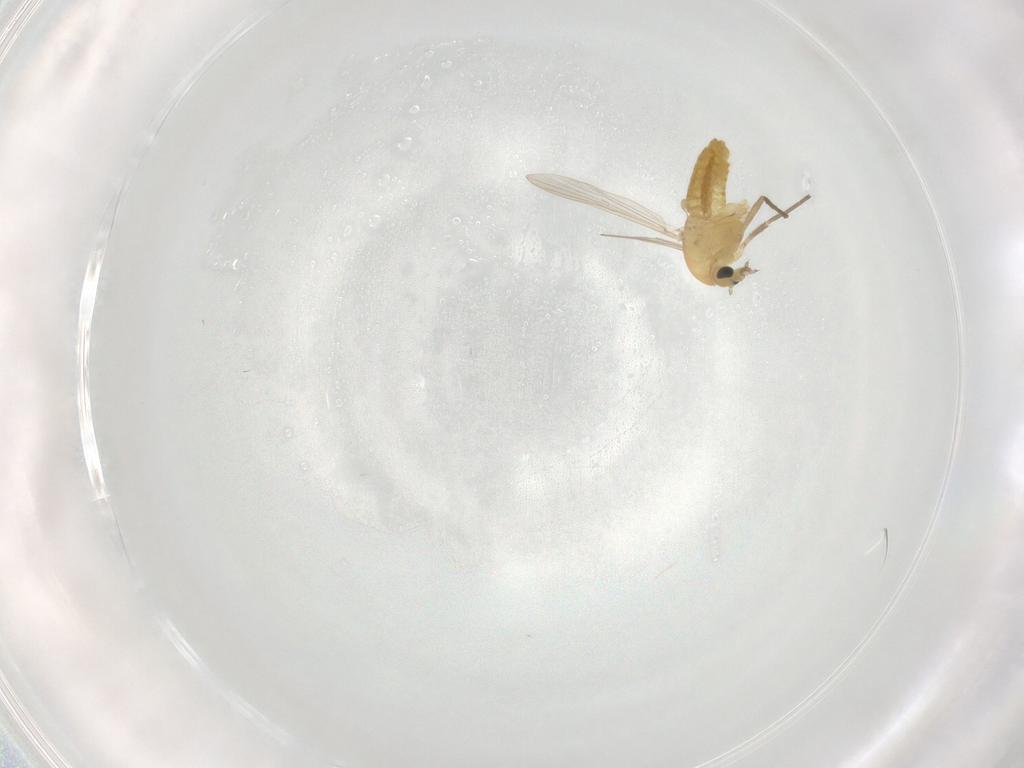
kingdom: Animalia
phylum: Arthropoda
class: Insecta
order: Diptera
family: Chironomidae
